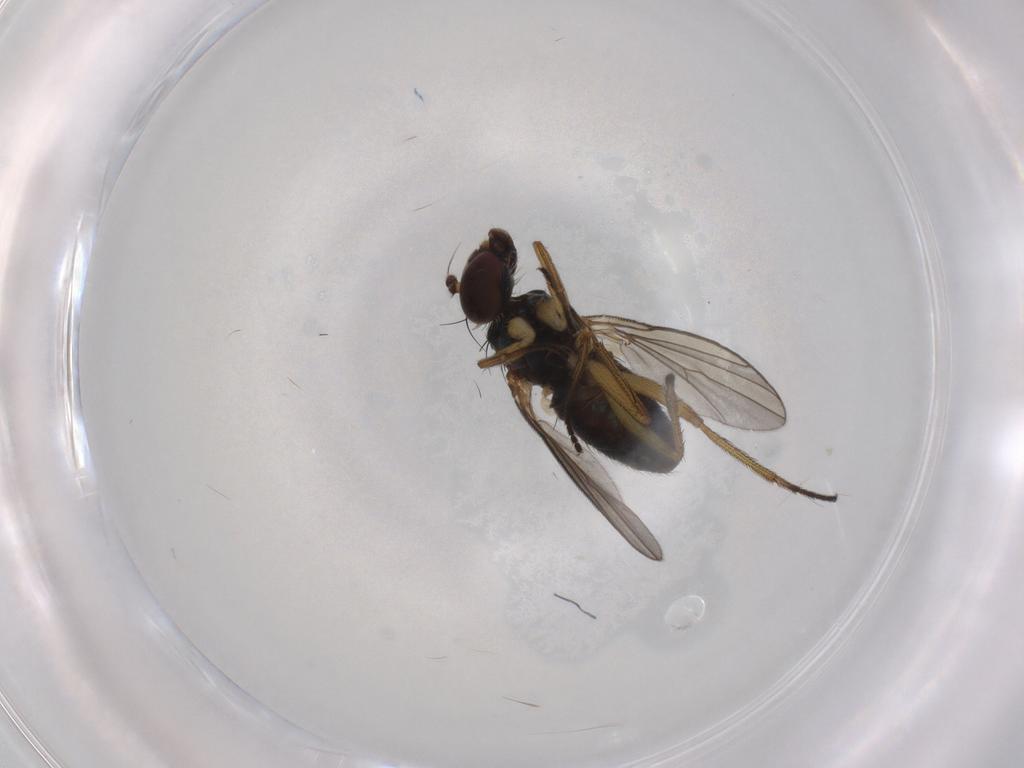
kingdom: Animalia
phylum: Arthropoda
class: Insecta
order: Diptera
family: Dolichopodidae
